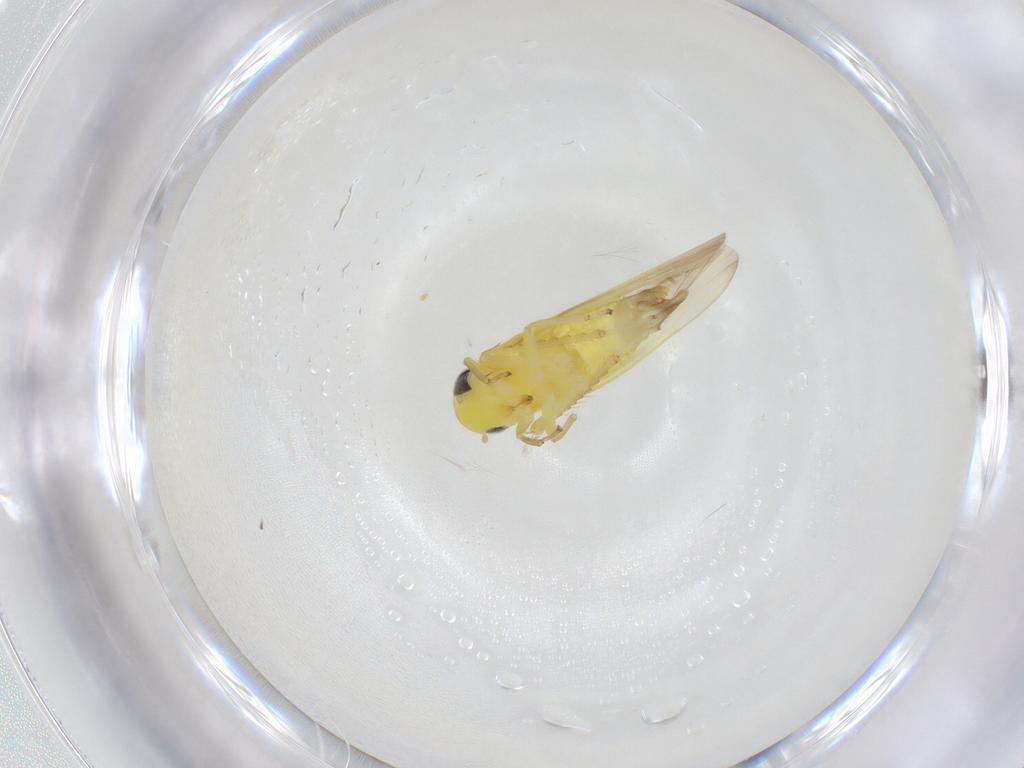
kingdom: Animalia
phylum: Arthropoda
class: Insecta
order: Hemiptera
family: Cicadellidae
